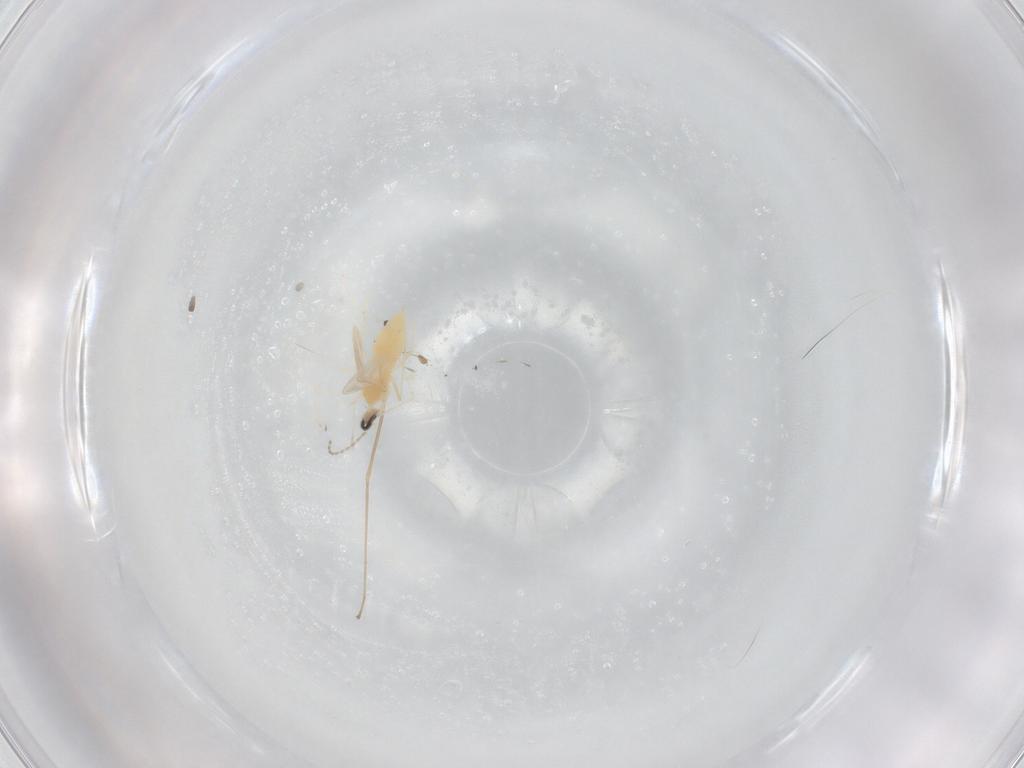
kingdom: Animalia
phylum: Arthropoda
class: Insecta
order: Diptera
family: Cecidomyiidae
